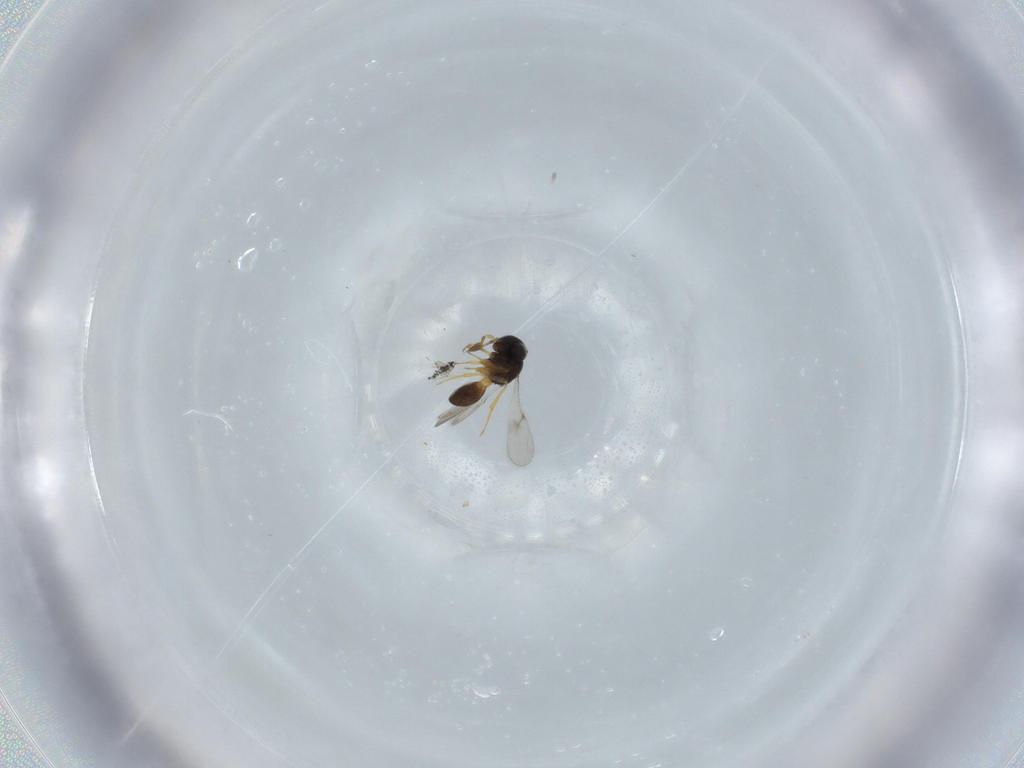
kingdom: Animalia
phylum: Arthropoda
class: Insecta
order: Hymenoptera
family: Scelionidae
